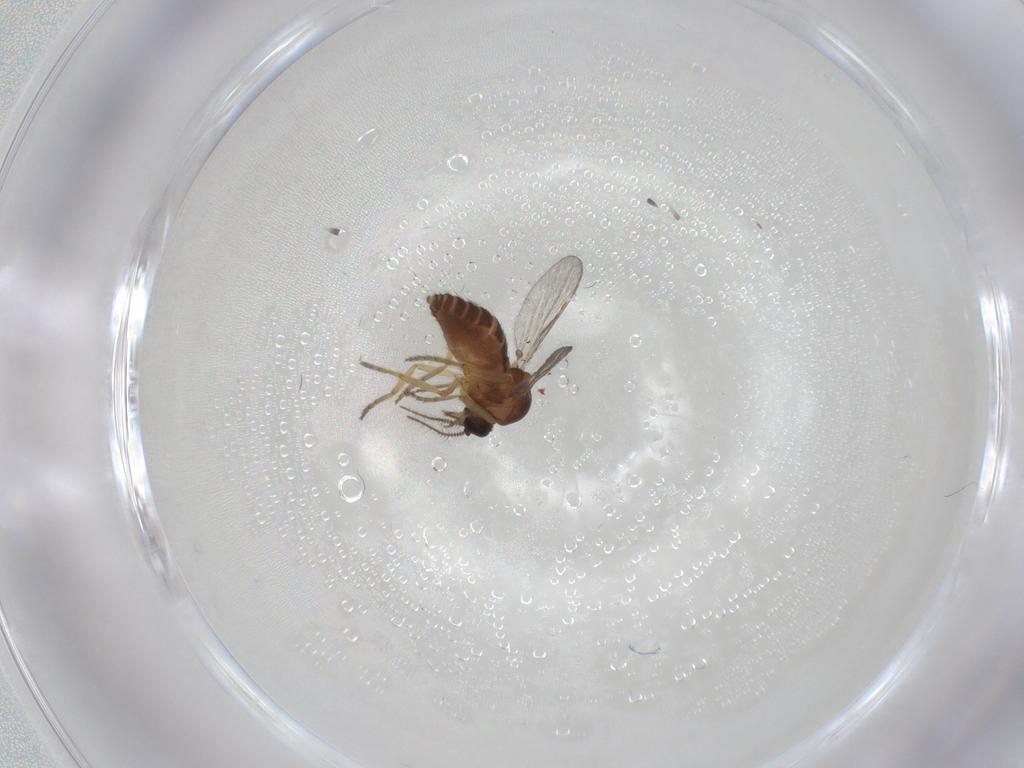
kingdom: Animalia
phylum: Arthropoda
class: Insecta
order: Diptera
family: Ceratopogonidae
